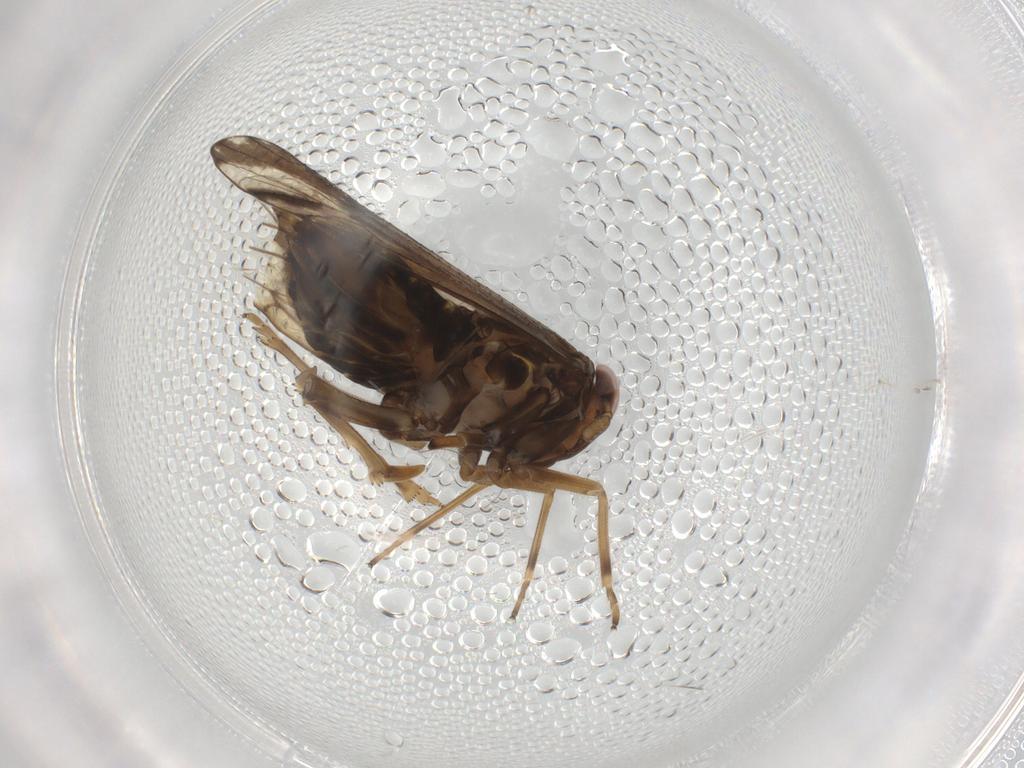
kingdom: Animalia
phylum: Arthropoda
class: Insecta
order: Hemiptera
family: Delphacidae
